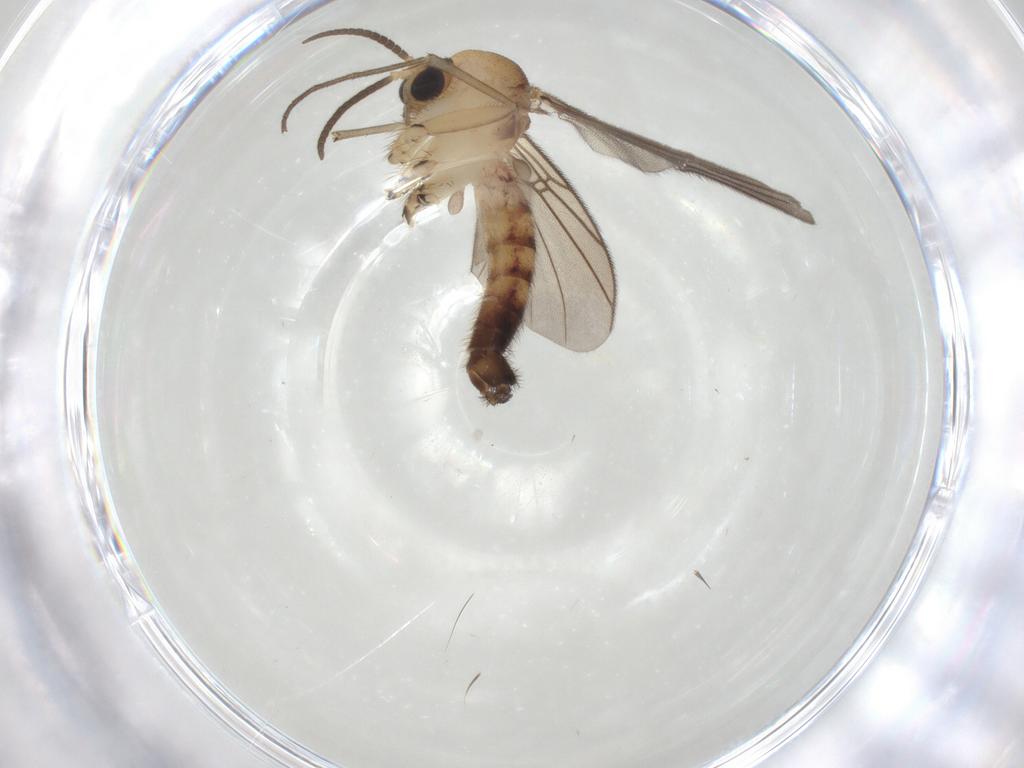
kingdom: Animalia
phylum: Arthropoda
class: Insecta
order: Diptera
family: Mycetophilidae
